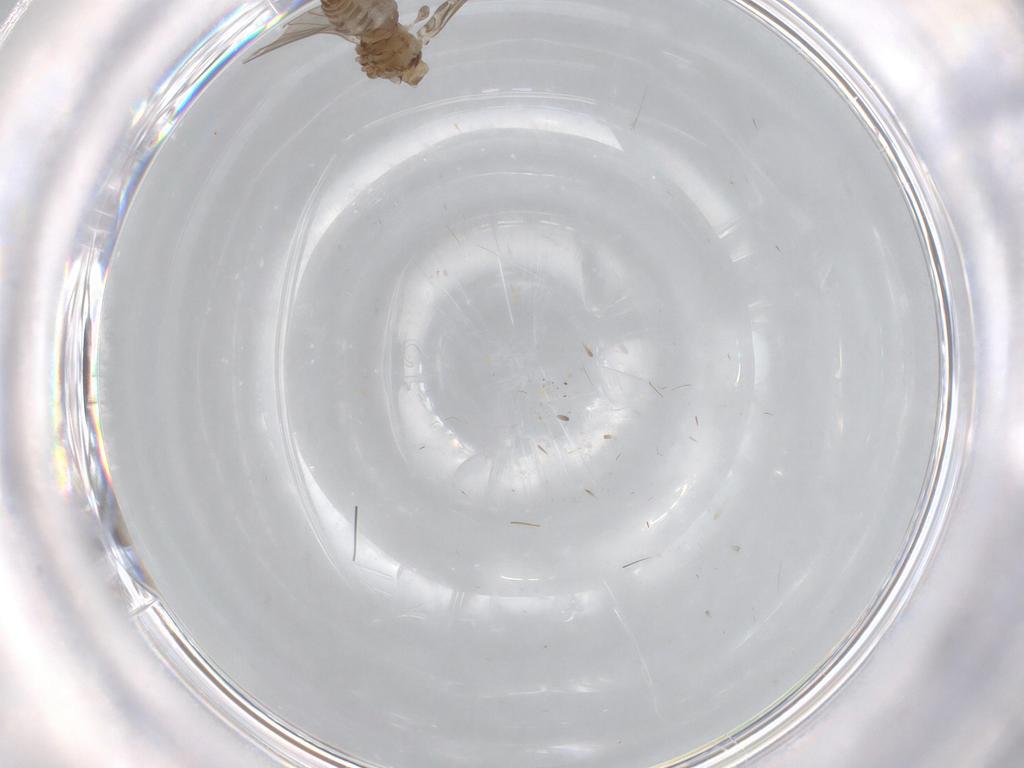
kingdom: Animalia
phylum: Arthropoda
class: Insecta
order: Diptera
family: Psychodidae
